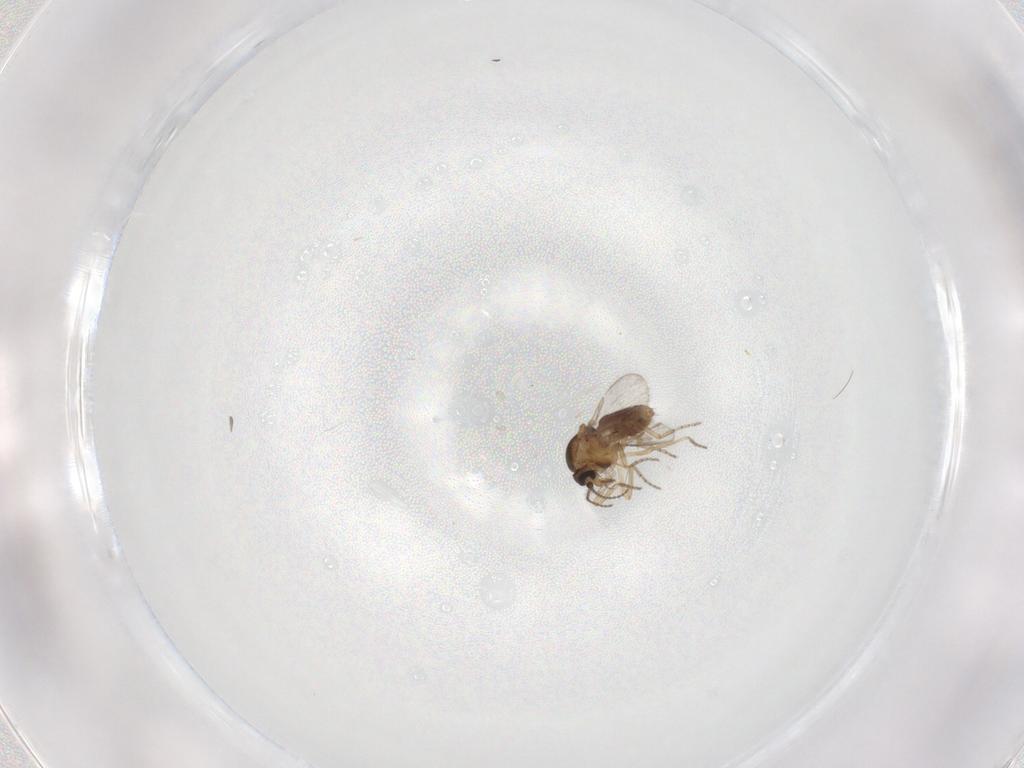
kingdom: Animalia
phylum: Arthropoda
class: Insecta
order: Diptera
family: Ceratopogonidae
